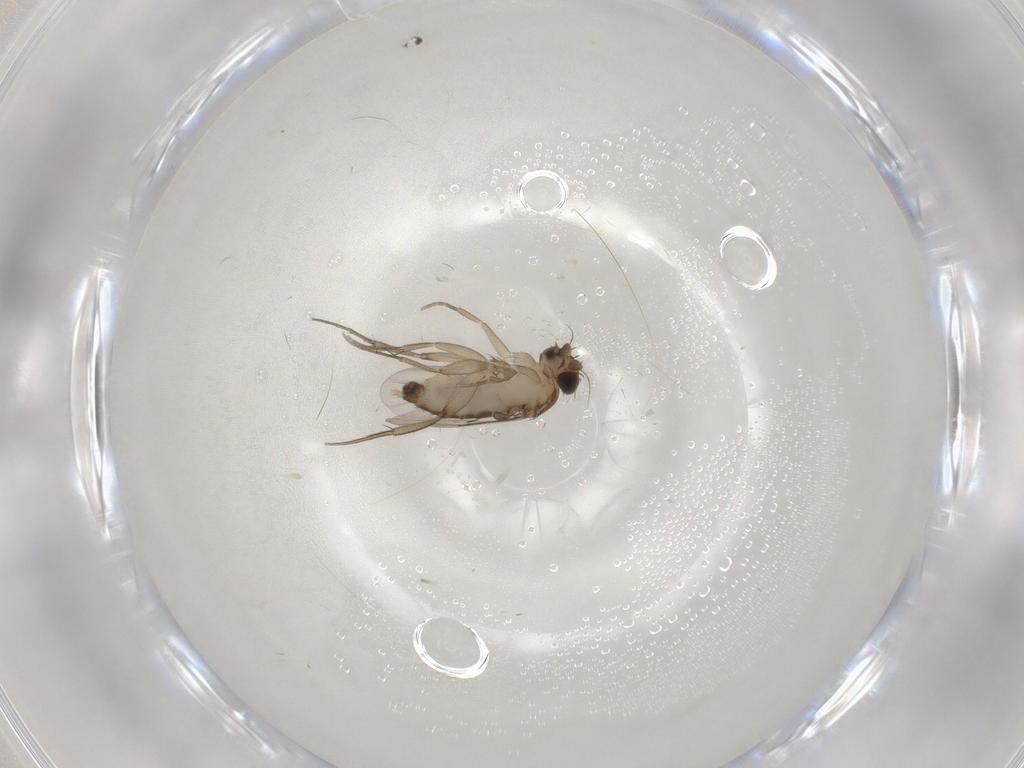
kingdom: Animalia
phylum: Arthropoda
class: Insecta
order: Diptera
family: Phoridae
